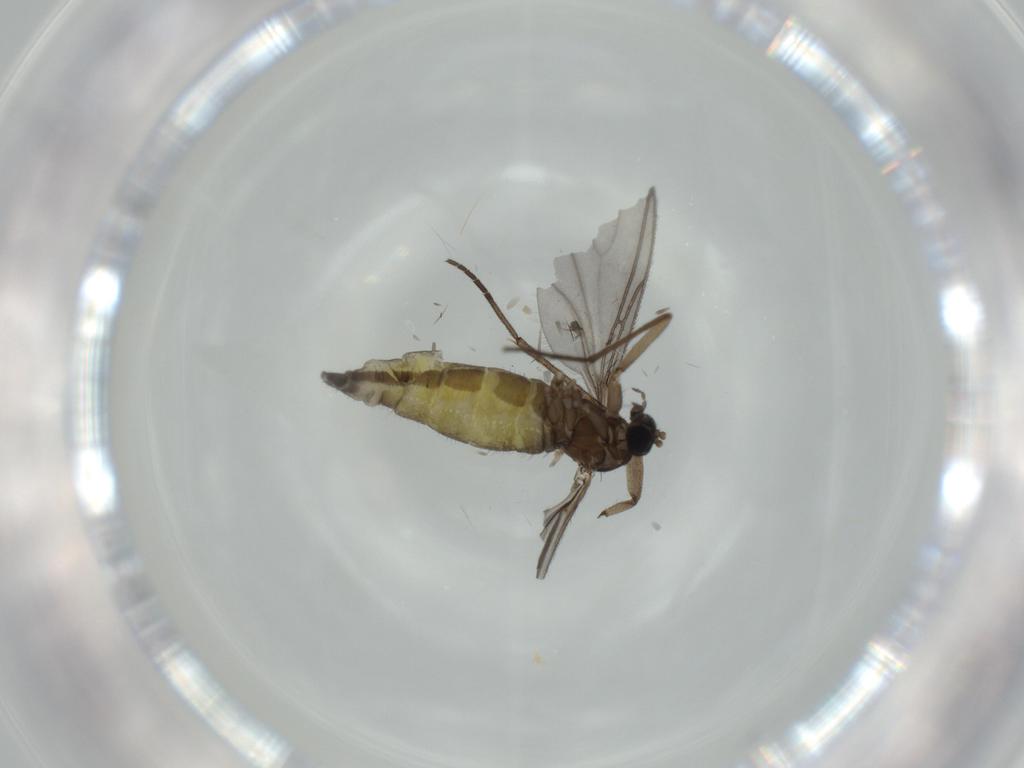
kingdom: Animalia
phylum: Arthropoda
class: Insecta
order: Diptera
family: Sciaridae
